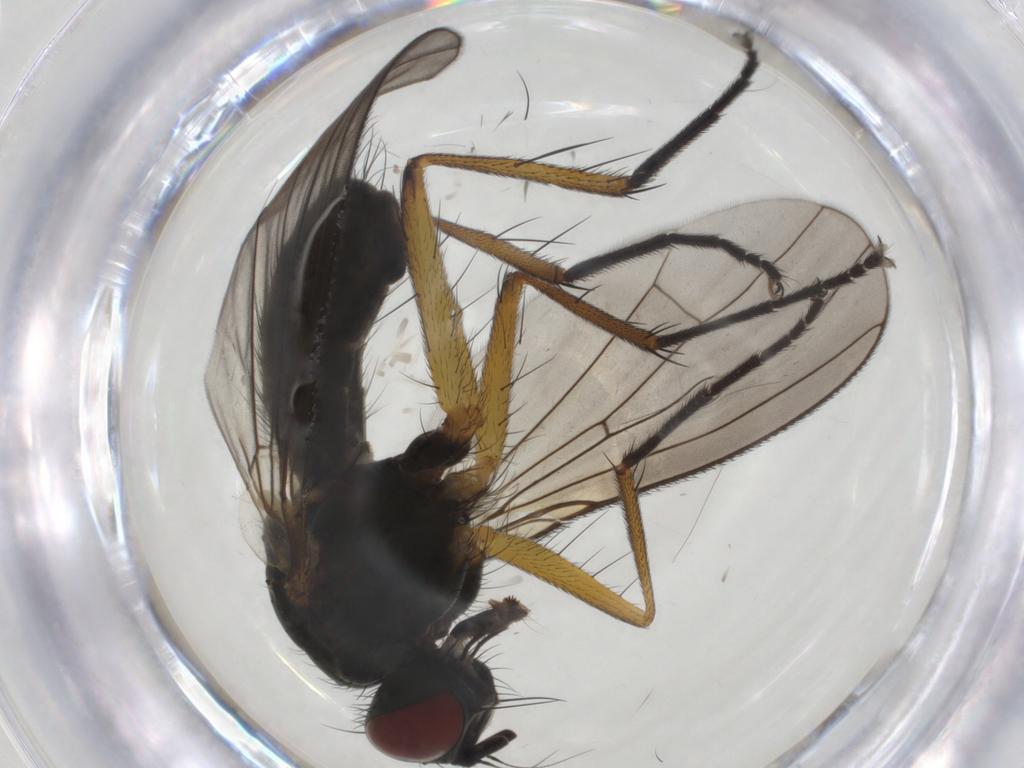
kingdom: Animalia
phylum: Arthropoda
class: Insecta
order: Diptera
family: Muscidae
